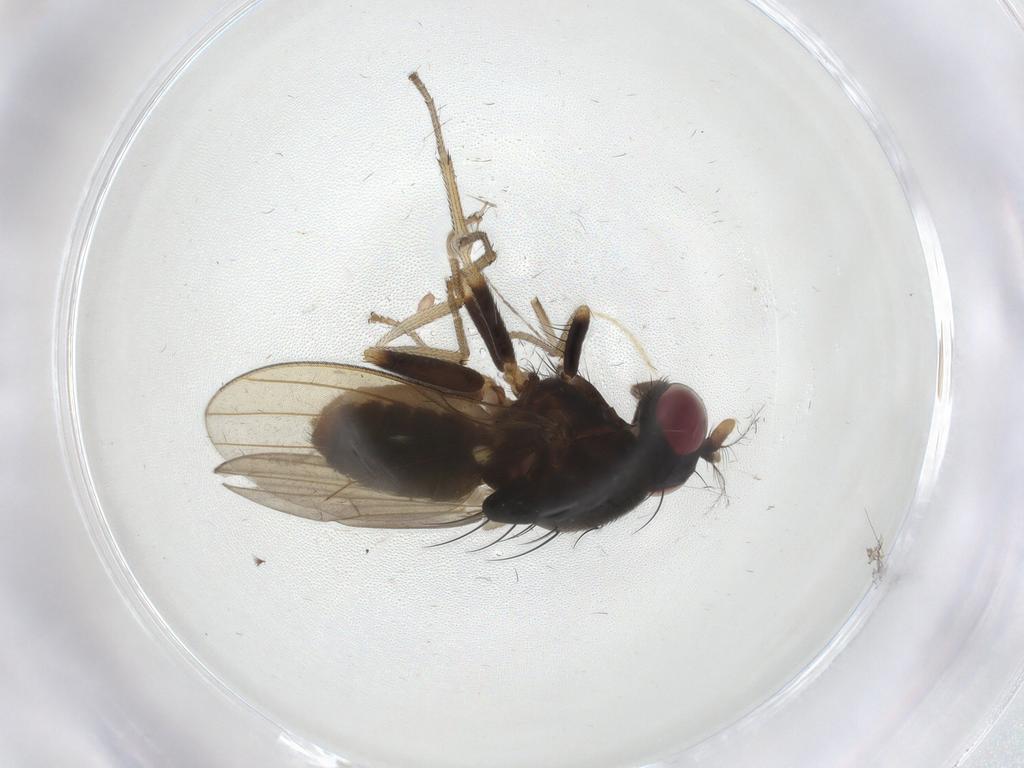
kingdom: Animalia
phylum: Arthropoda
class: Insecta
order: Diptera
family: Lauxaniidae
